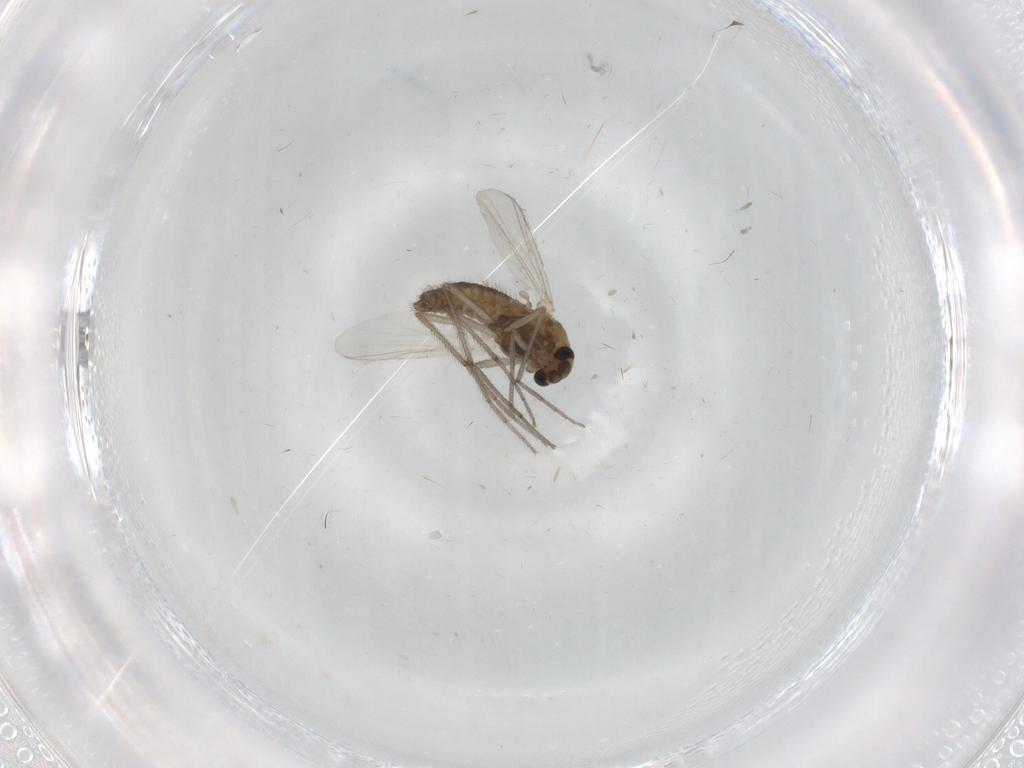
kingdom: Animalia
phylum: Arthropoda
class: Insecta
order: Diptera
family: Chironomidae
